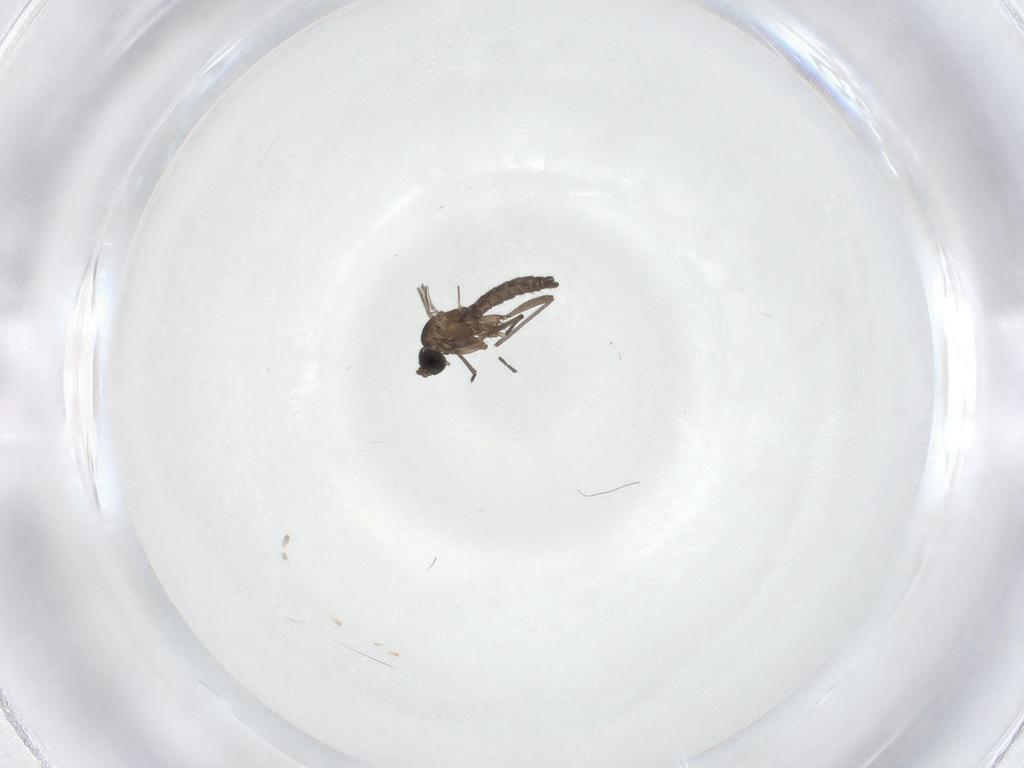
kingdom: Animalia
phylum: Arthropoda
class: Insecta
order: Diptera
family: Sciaridae
